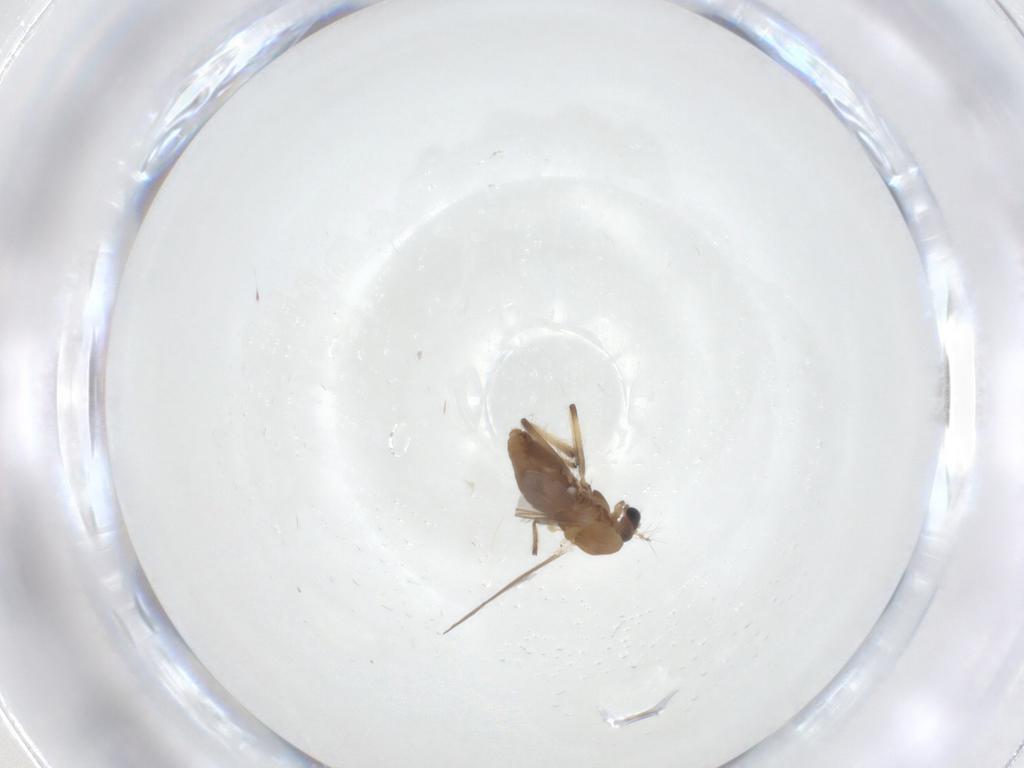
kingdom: Animalia
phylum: Arthropoda
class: Insecta
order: Diptera
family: Chironomidae
